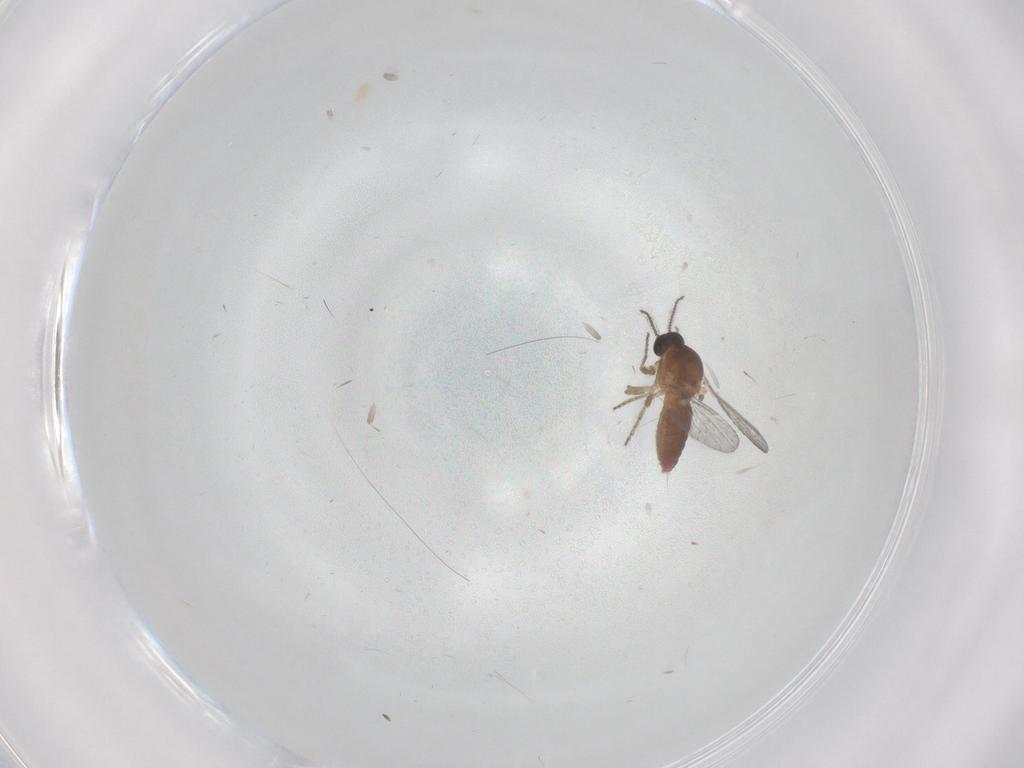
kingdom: Animalia
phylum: Arthropoda
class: Insecta
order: Diptera
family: Ceratopogonidae
